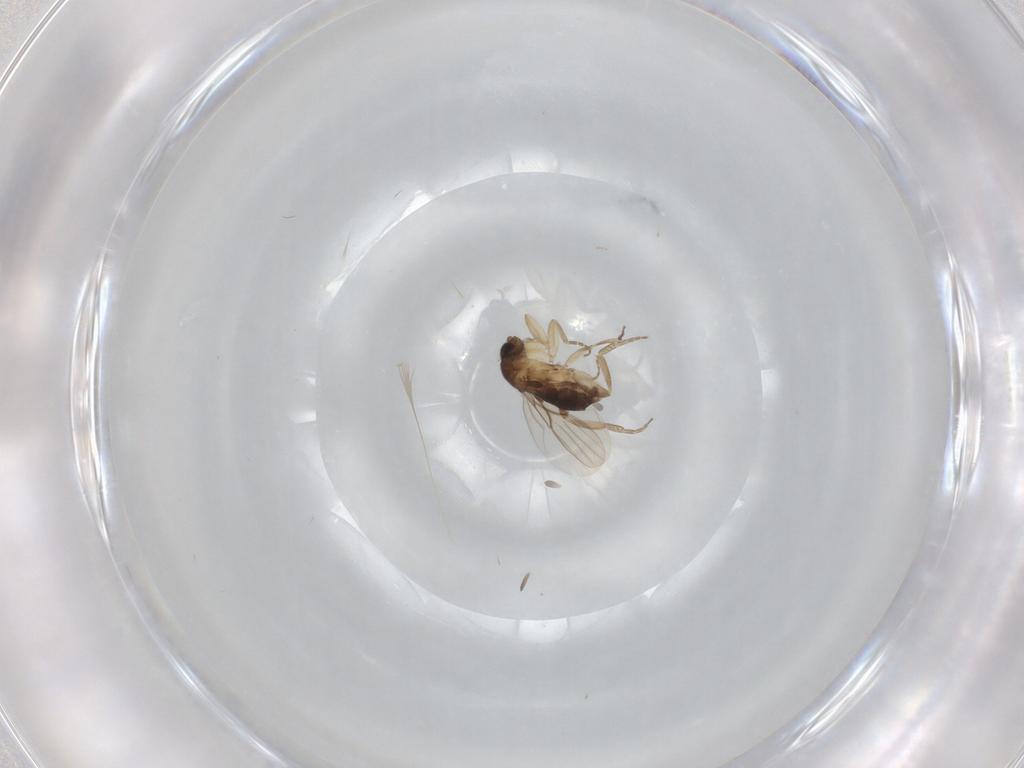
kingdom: Animalia
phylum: Arthropoda
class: Insecta
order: Diptera
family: Phoridae
